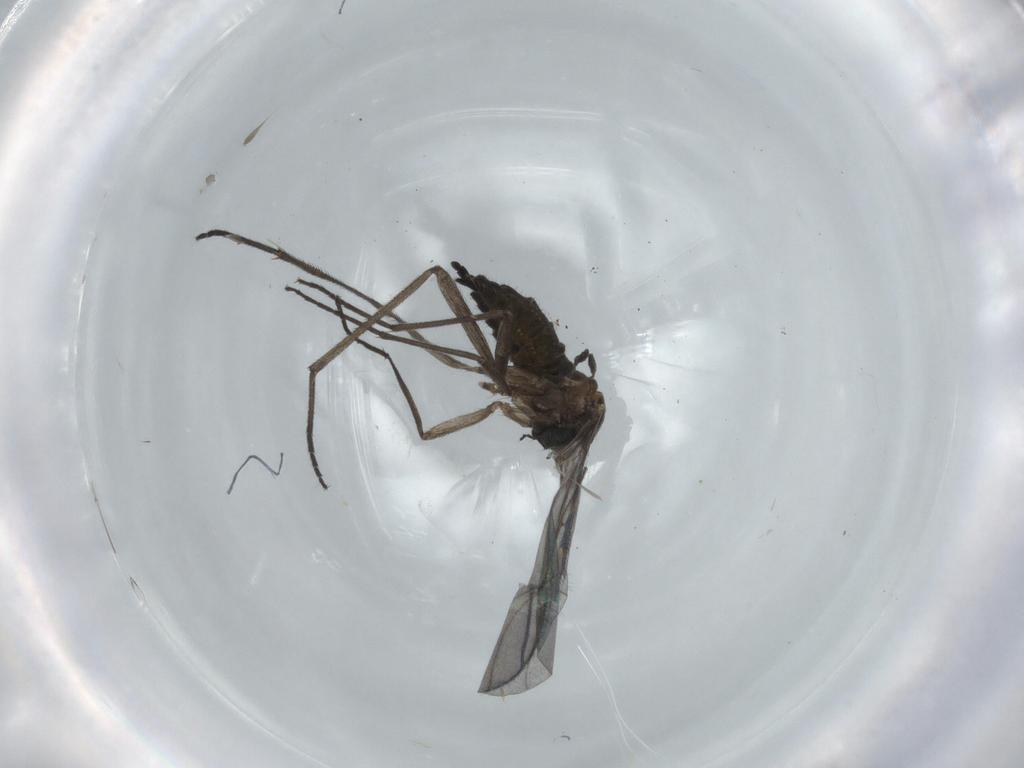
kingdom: Animalia
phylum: Arthropoda
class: Insecta
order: Diptera
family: Sciaridae
